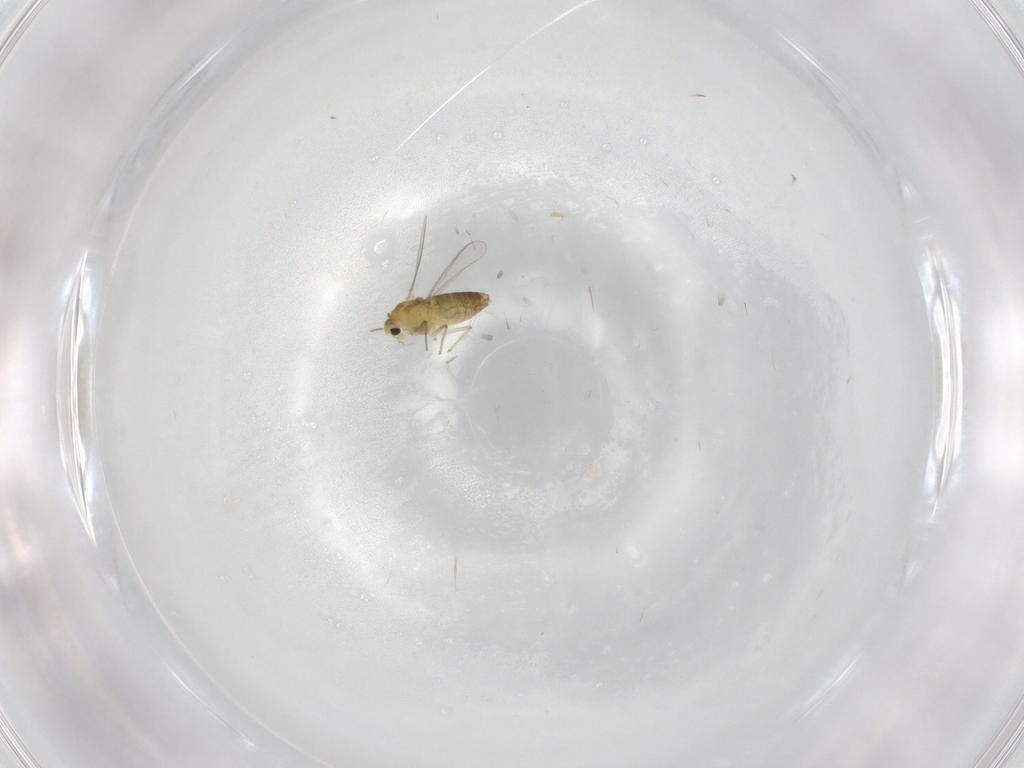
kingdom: Animalia
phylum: Arthropoda
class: Insecta
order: Diptera
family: Chironomidae
